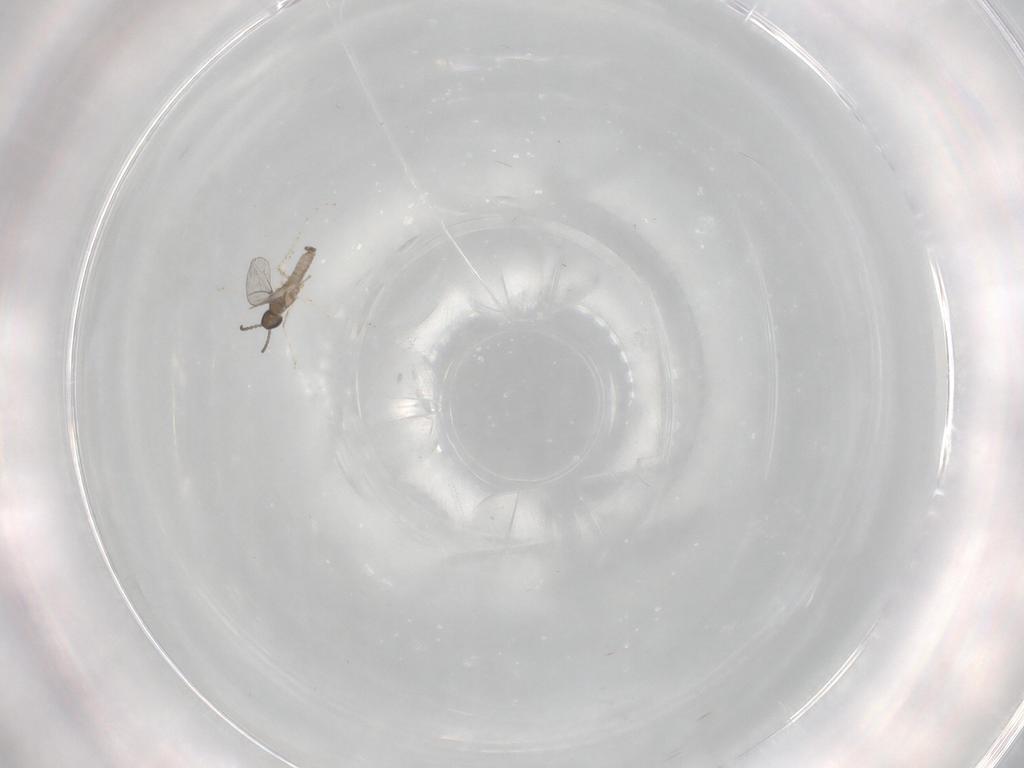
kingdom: Animalia
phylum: Arthropoda
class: Insecta
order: Diptera
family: Cecidomyiidae
